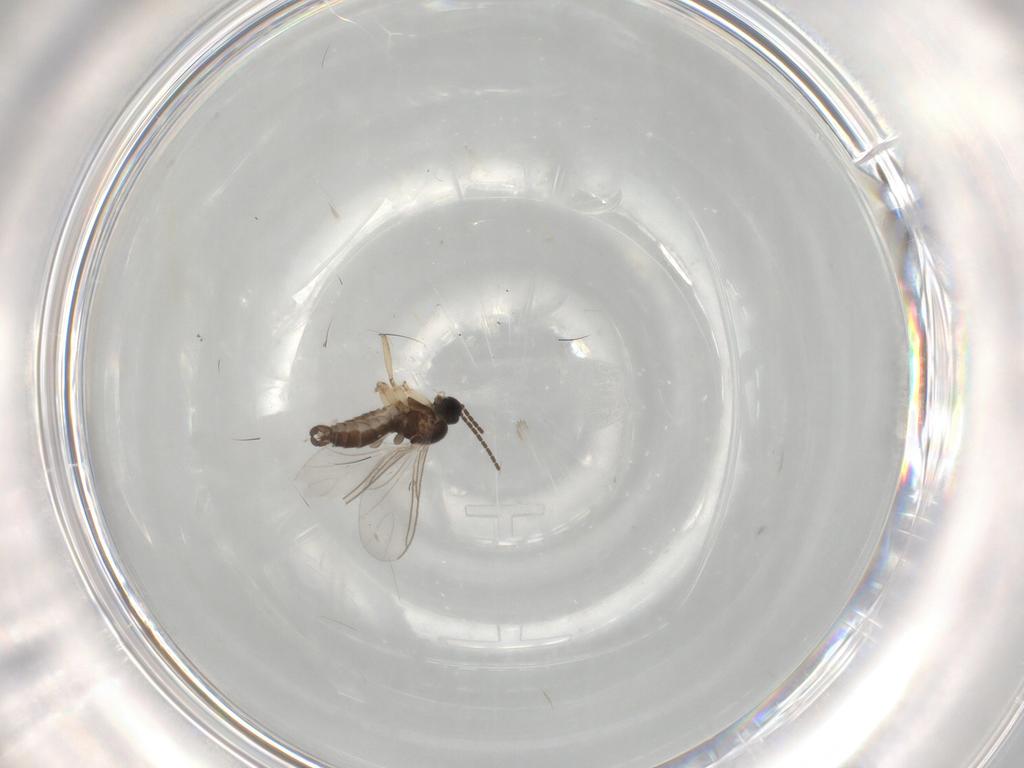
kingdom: Animalia
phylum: Arthropoda
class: Insecta
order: Diptera
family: Sciaridae
